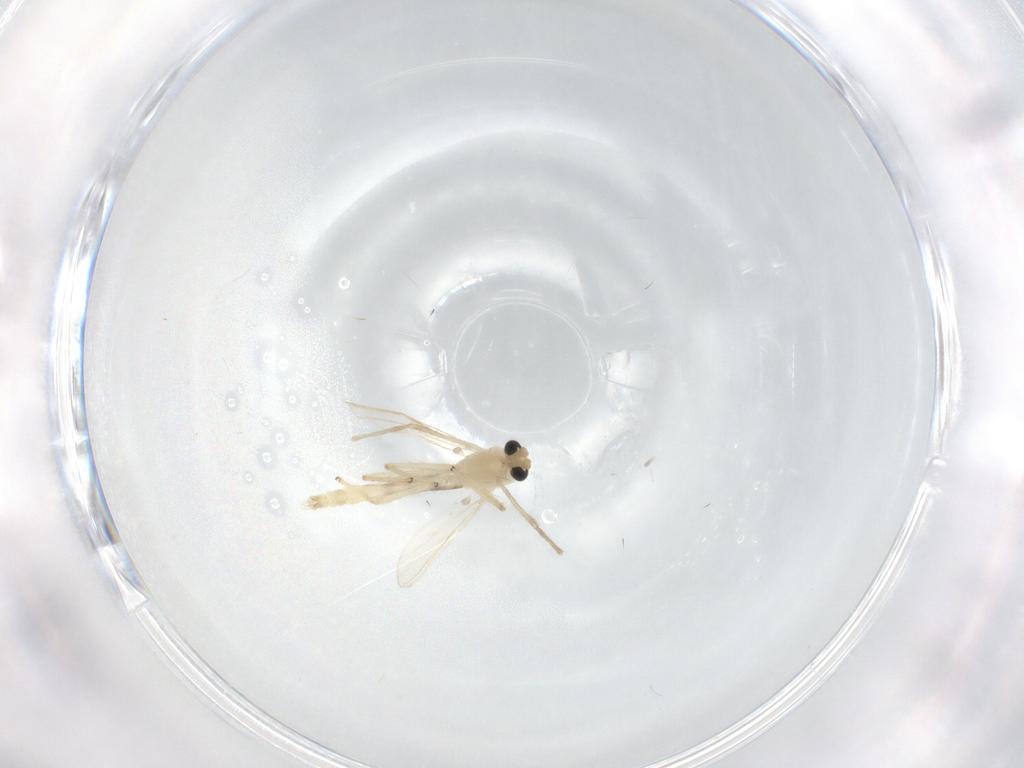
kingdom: Animalia
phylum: Arthropoda
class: Insecta
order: Diptera
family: Chironomidae
